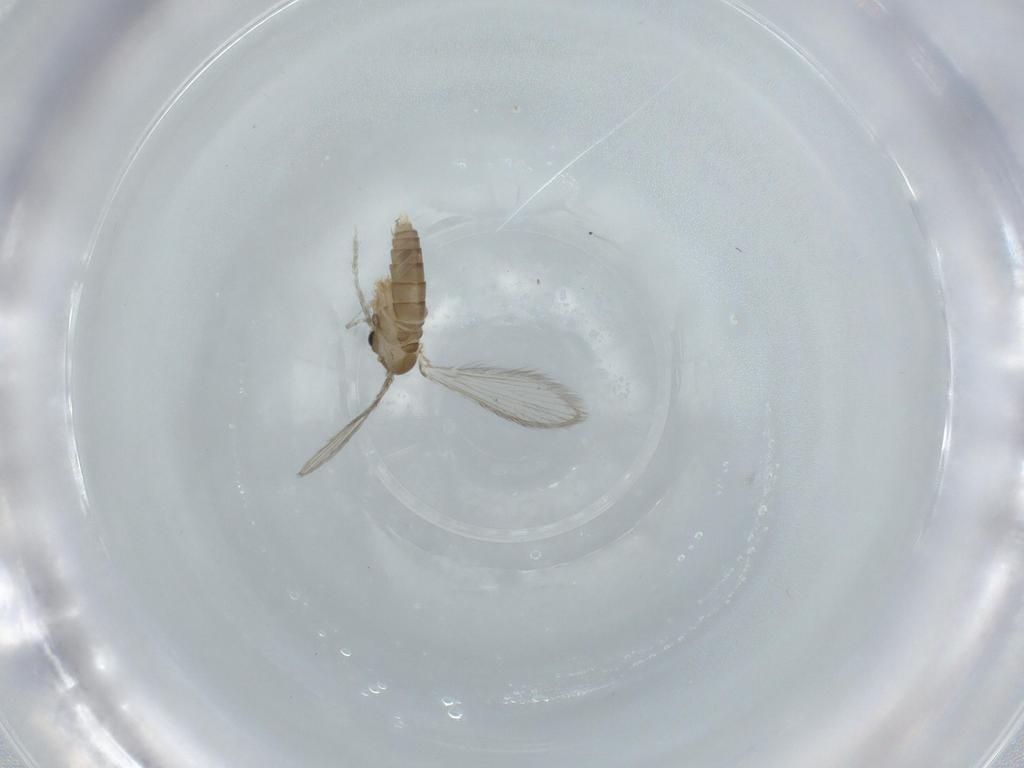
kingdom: Animalia
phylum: Arthropoda
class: Insecta
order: Diptera
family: Psychodidae
